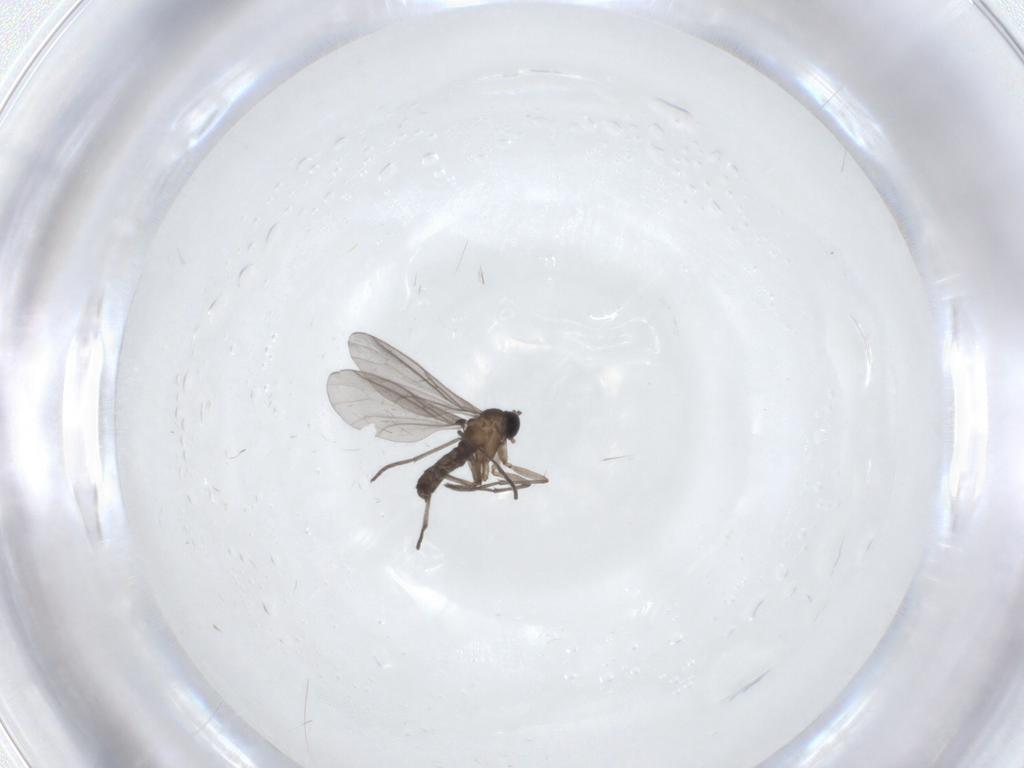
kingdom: Animalia
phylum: Arthropoda
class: Insecta
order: Diptera
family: Psychodidae
